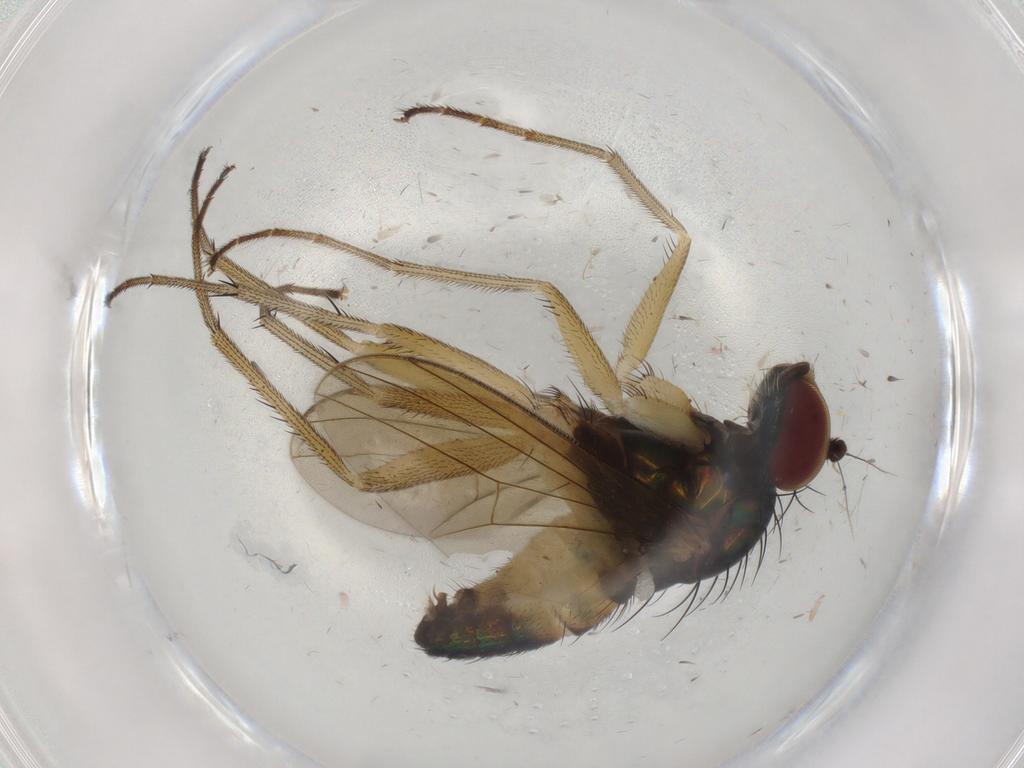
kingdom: Animalia
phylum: Arthropoda
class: Insecta
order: Diptera
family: Dolichopodidae
